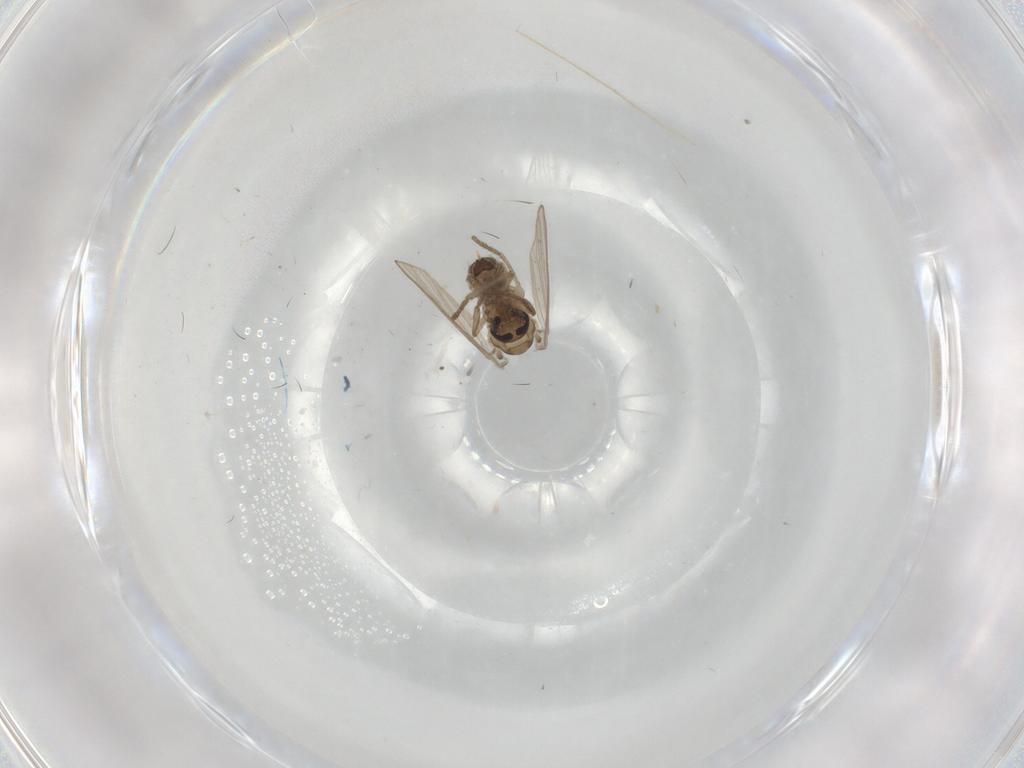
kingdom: Animalia
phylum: Arthropoda
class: Insecta
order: Diptera
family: Psychodidae
